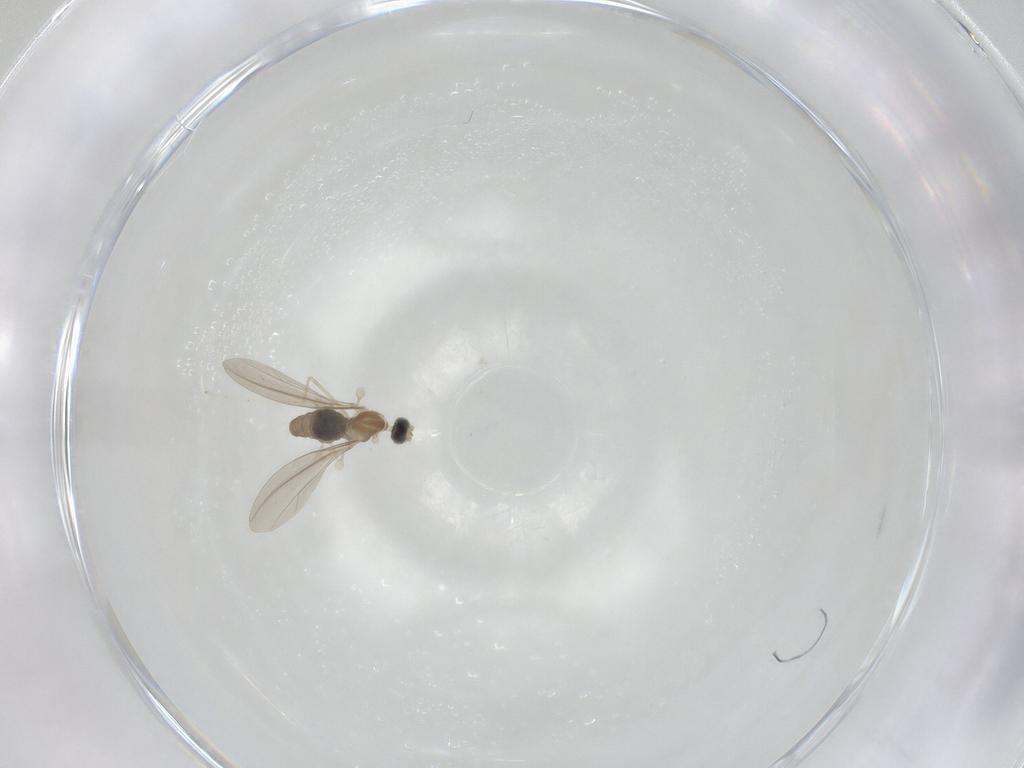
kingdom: Animalia
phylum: Arthropoda
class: Insecta
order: Diptera
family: Cecidomyiidae
